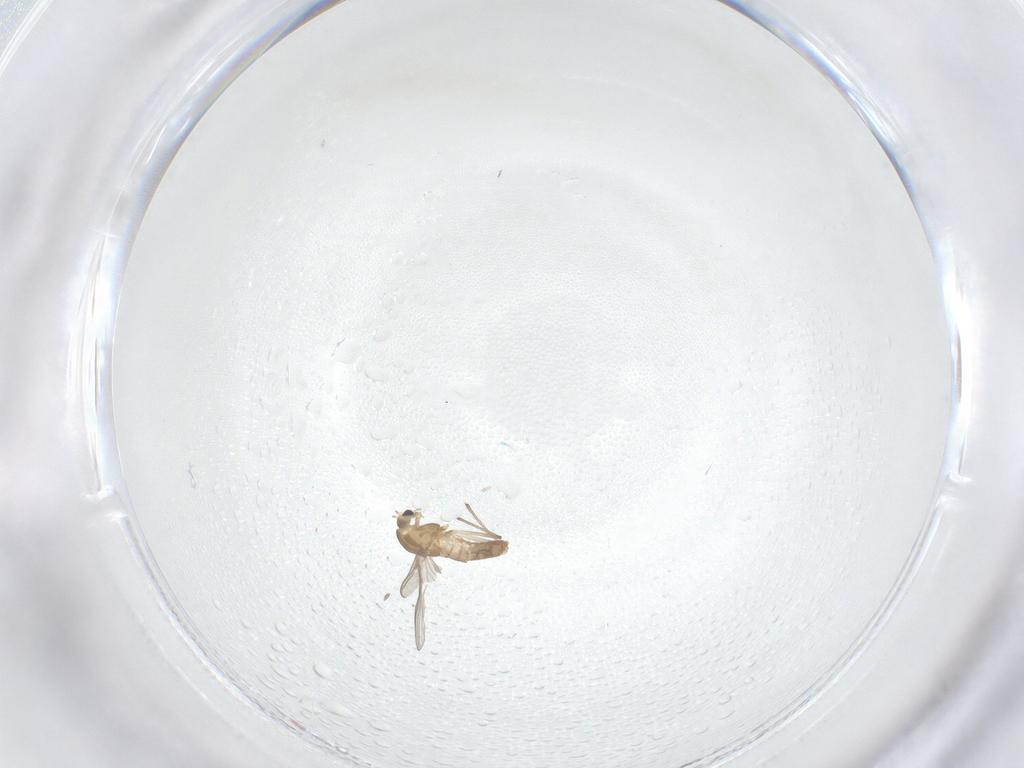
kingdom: Animalia
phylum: Arthropoda
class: Insecta
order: Diptera
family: Chironomidae
